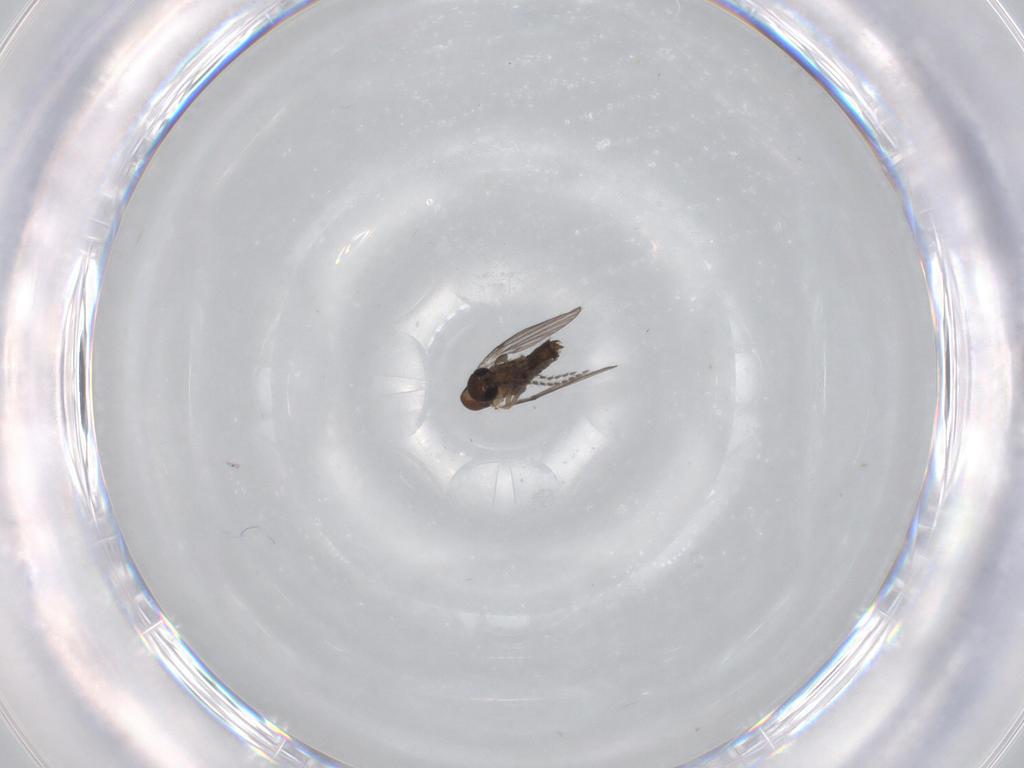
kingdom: Animalia
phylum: Arthropoda
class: Insecta
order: Diptera
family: Psychodidae
